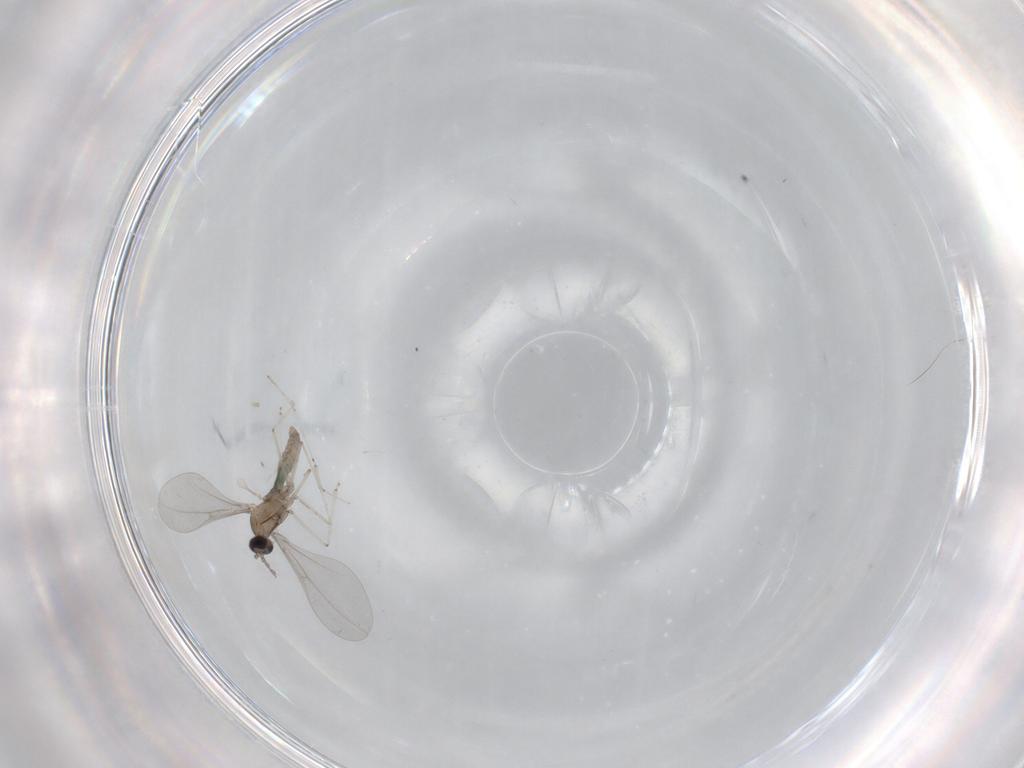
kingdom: Animalia
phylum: Arthropoda
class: Insecta
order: Diptera
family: Cecidomyiidae
